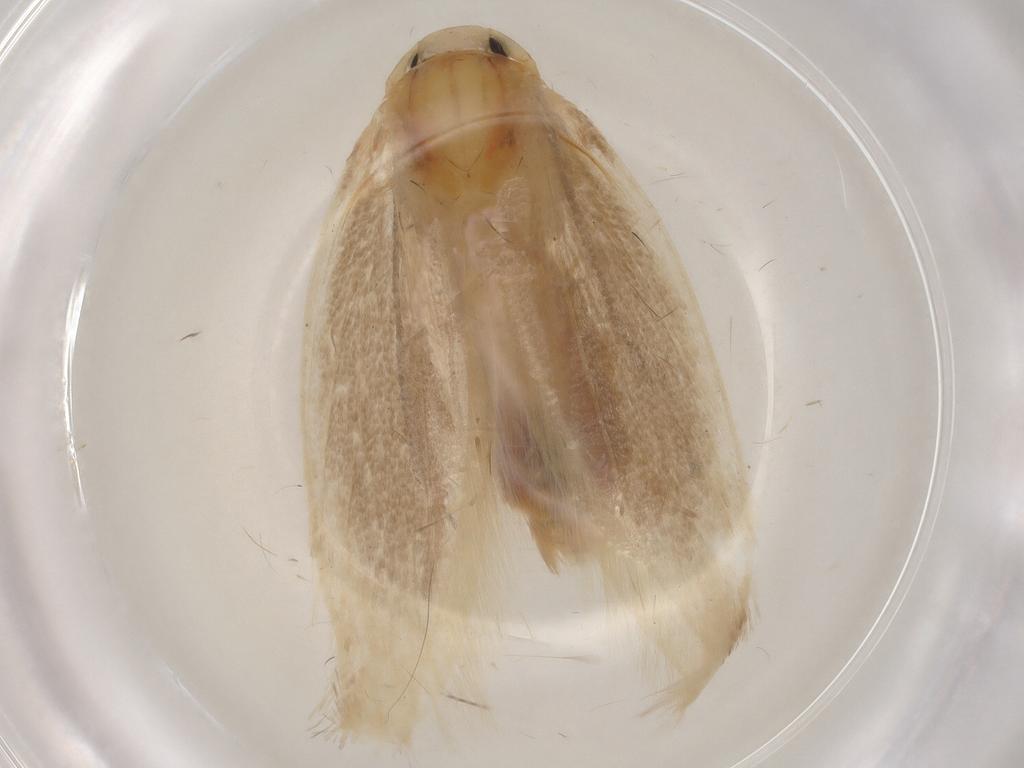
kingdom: Animalia
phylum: Arthropoda
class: Insecta
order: Lepidoptera
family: Geometridae
